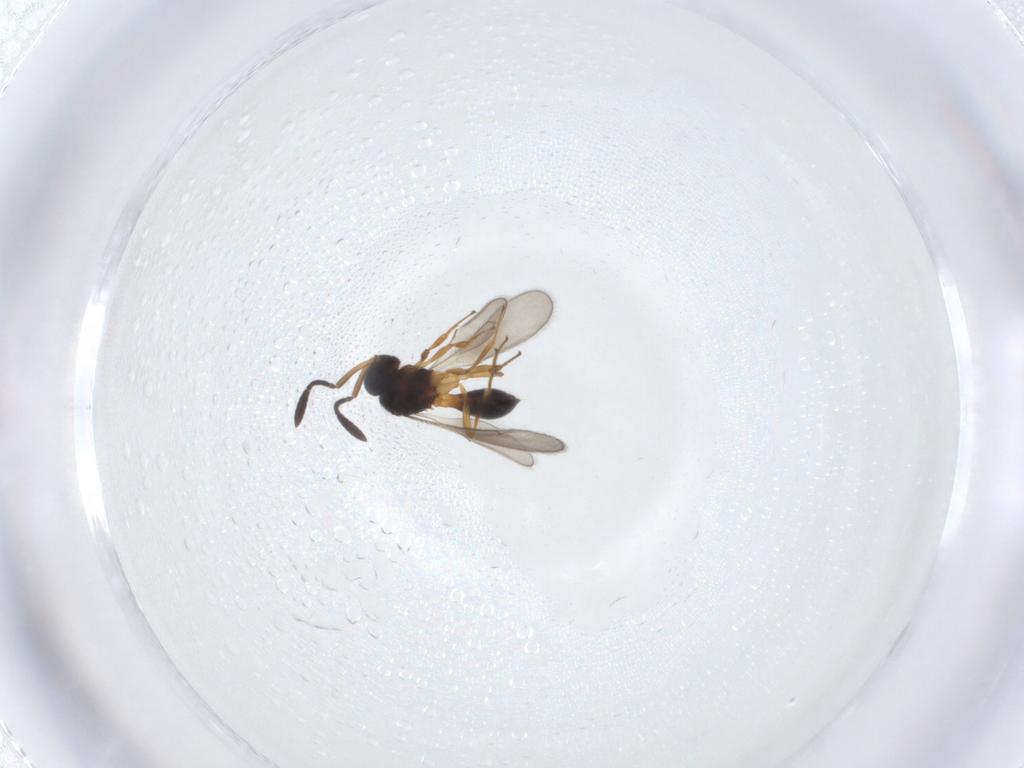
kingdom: Animalia
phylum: Arthropoda
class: Insecta
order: Hymenoptera
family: Scelionidae
